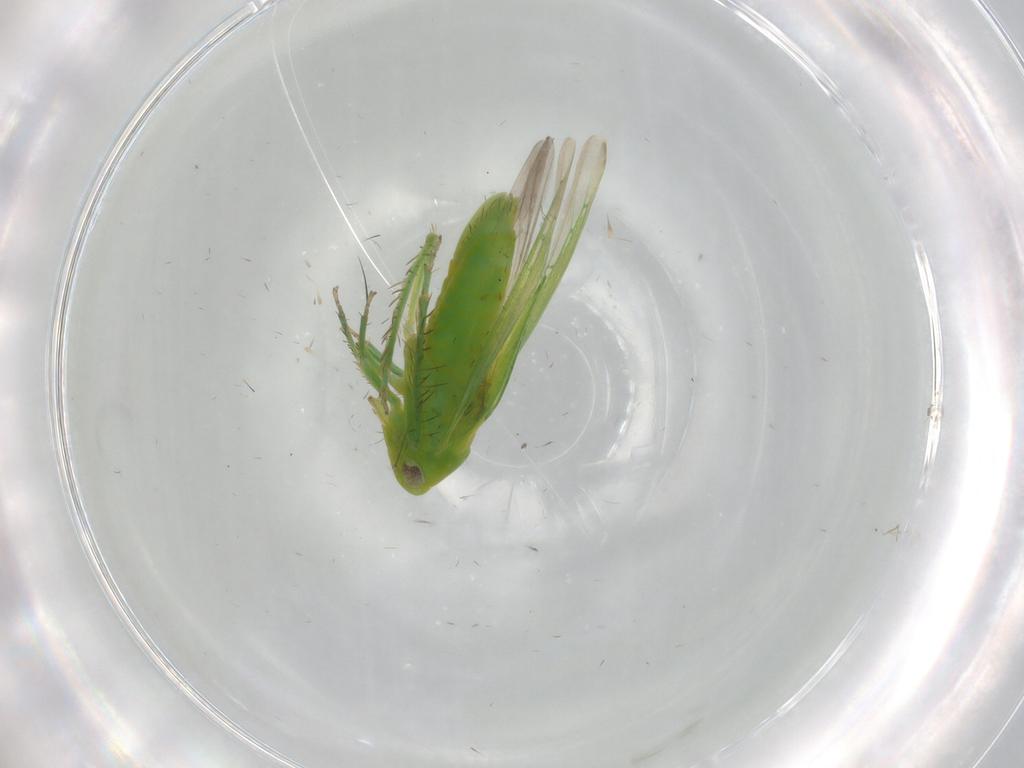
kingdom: Animalia
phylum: Arthropoda
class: Insecta
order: Hemiptera
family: Cicadellidae
